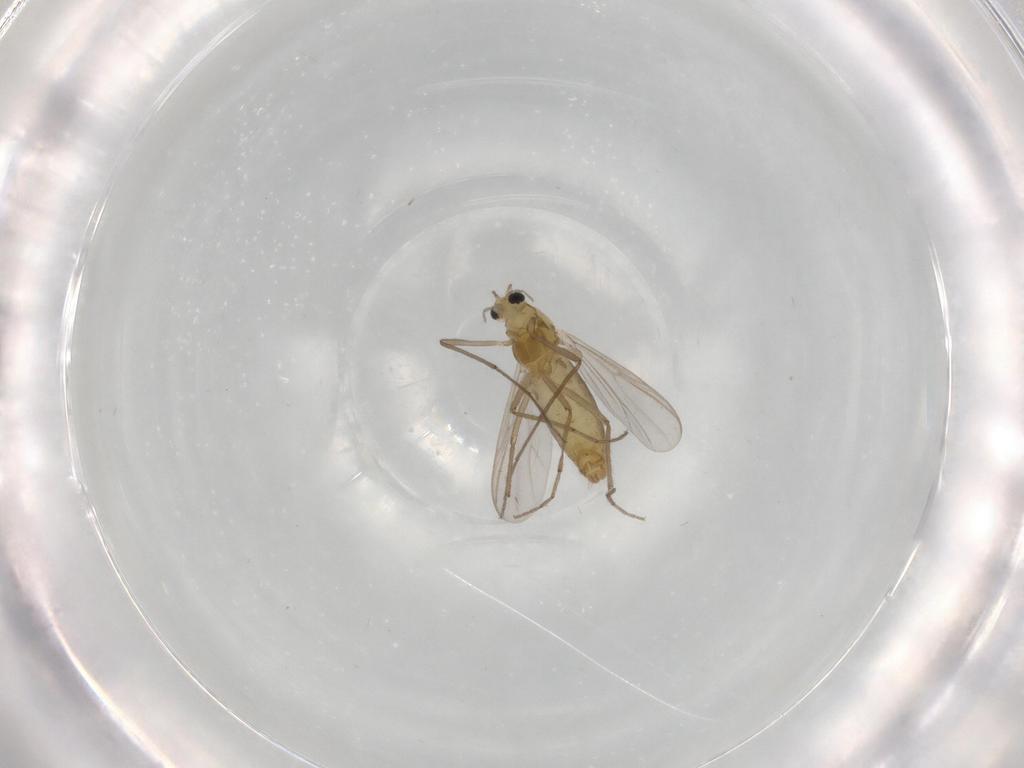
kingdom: Animalia
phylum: Arthropoda
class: Insecta
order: Diptera
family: Chironomidae
